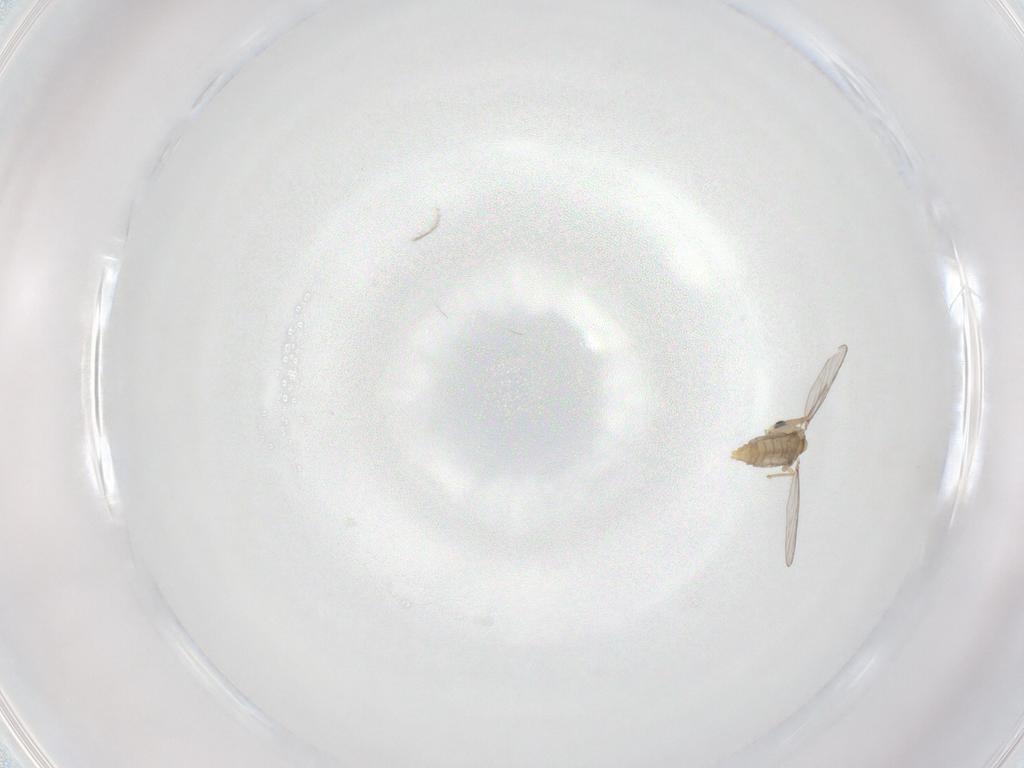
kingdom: Animalia
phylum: Arthropoda
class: Insecta
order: Diptera
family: Chironomidae
